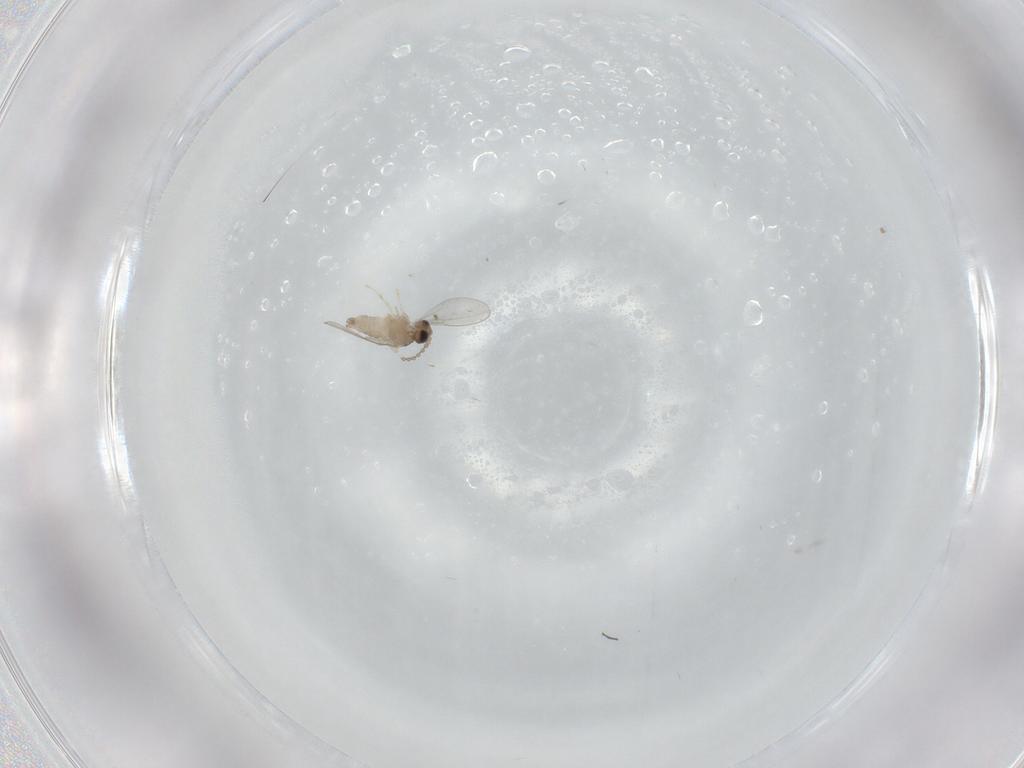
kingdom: Animalia
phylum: Arthropoda
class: Insecta
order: Diptera
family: Cecidomyiidae
